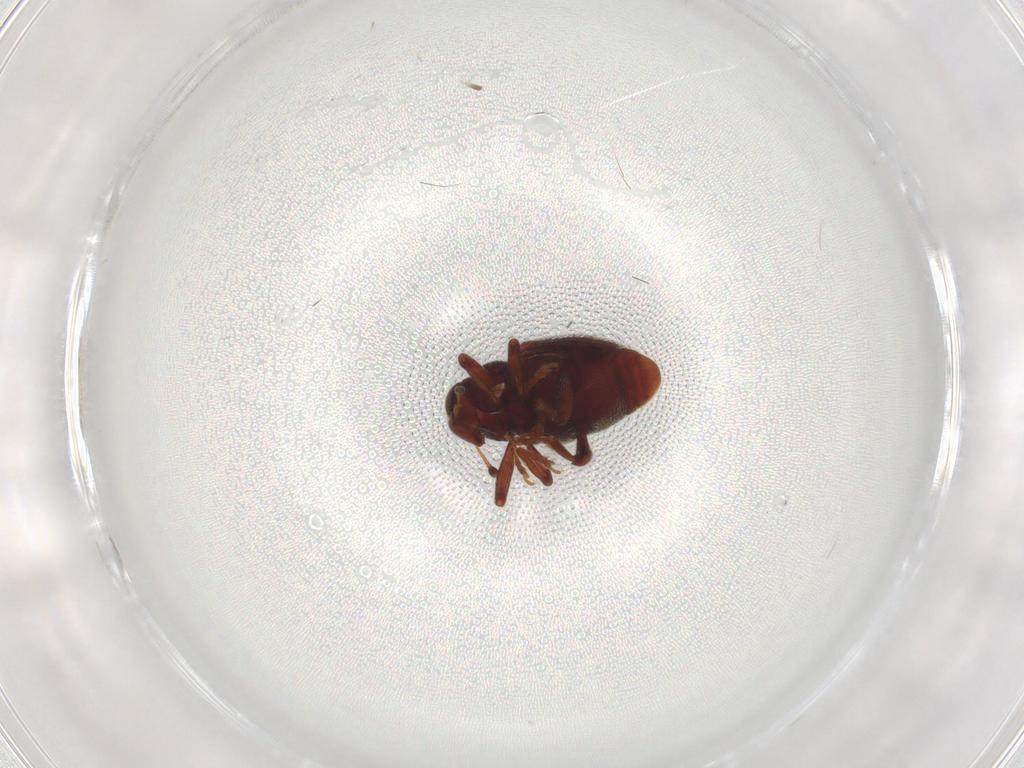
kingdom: Animalia
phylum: Arthropoda
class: Insecta
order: Coleoptera
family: Curculionidae
